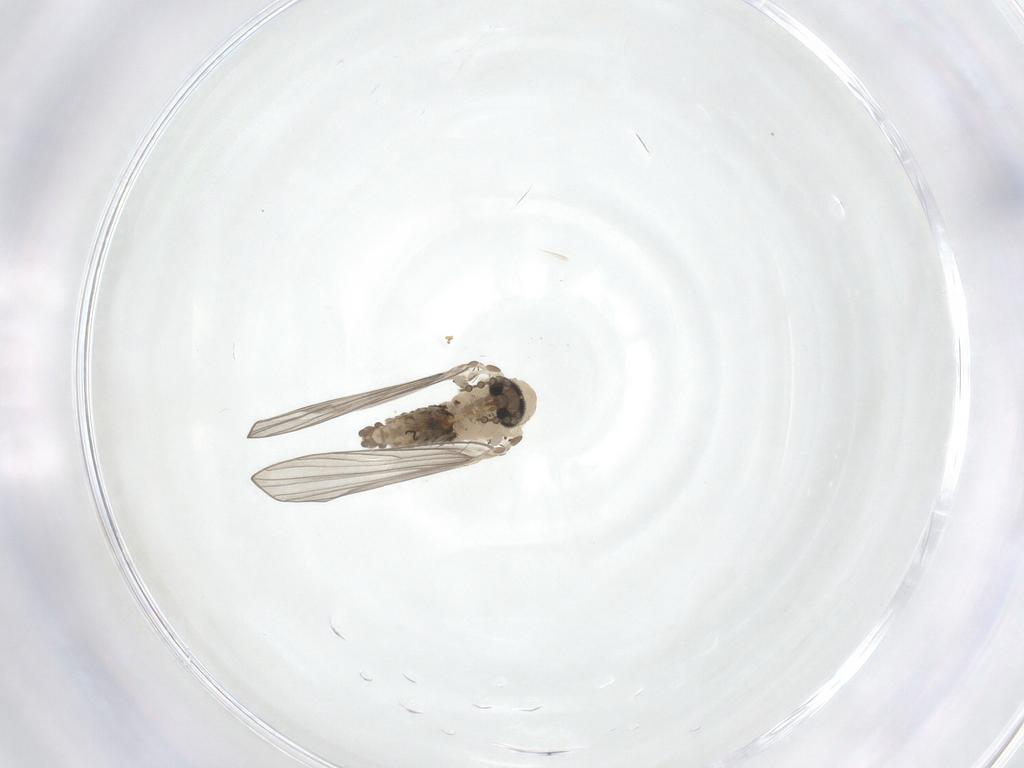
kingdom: Animalia
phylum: Arthropoda
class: Insecta
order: Diptera
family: Psychodidae
